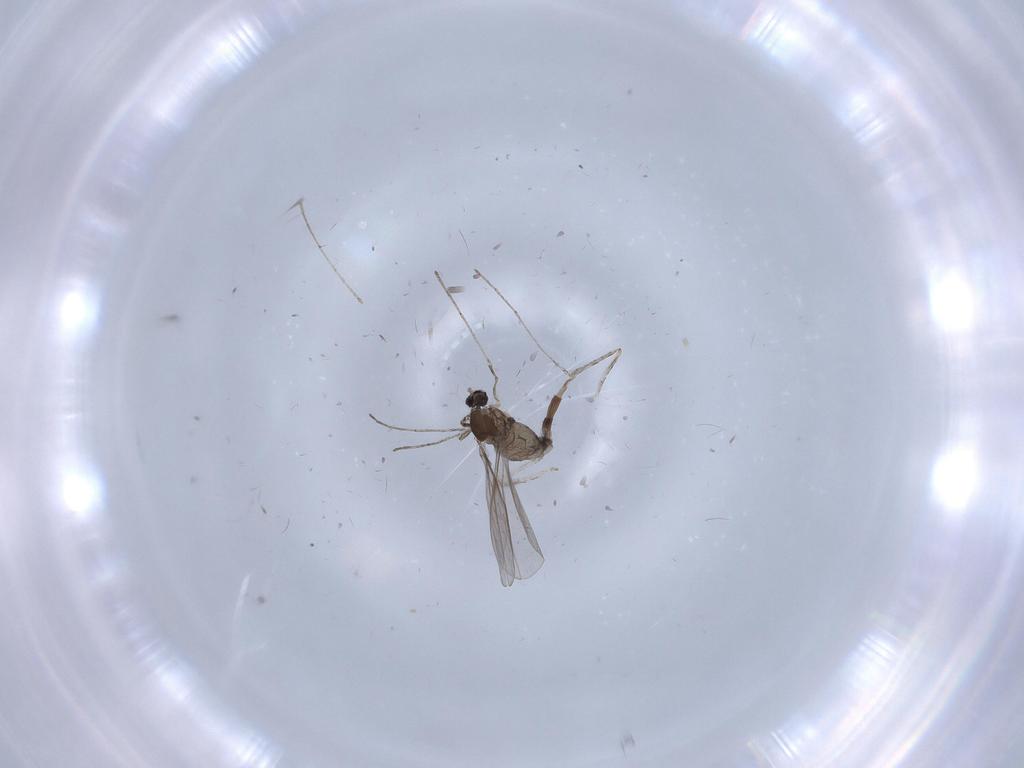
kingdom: Animalia
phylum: Arthropoda
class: Insecta
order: Diptera
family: Cecidomyiidae
